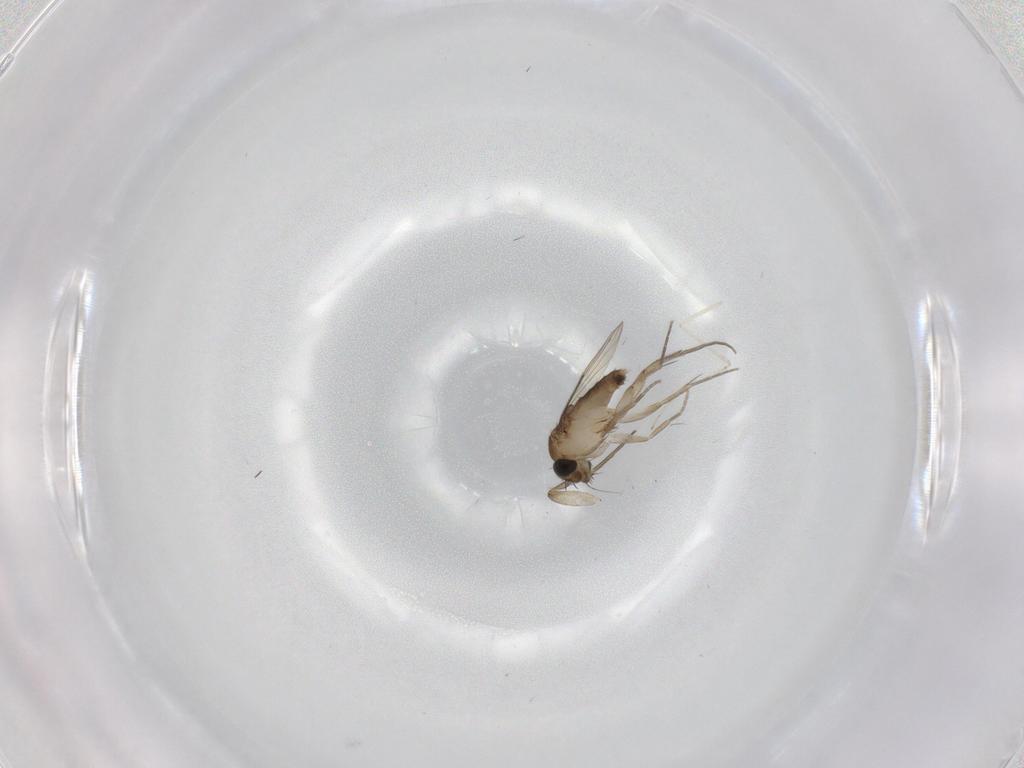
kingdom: Animalia
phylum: Arthropoda
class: Insecta
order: Diptera
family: Phoridae
